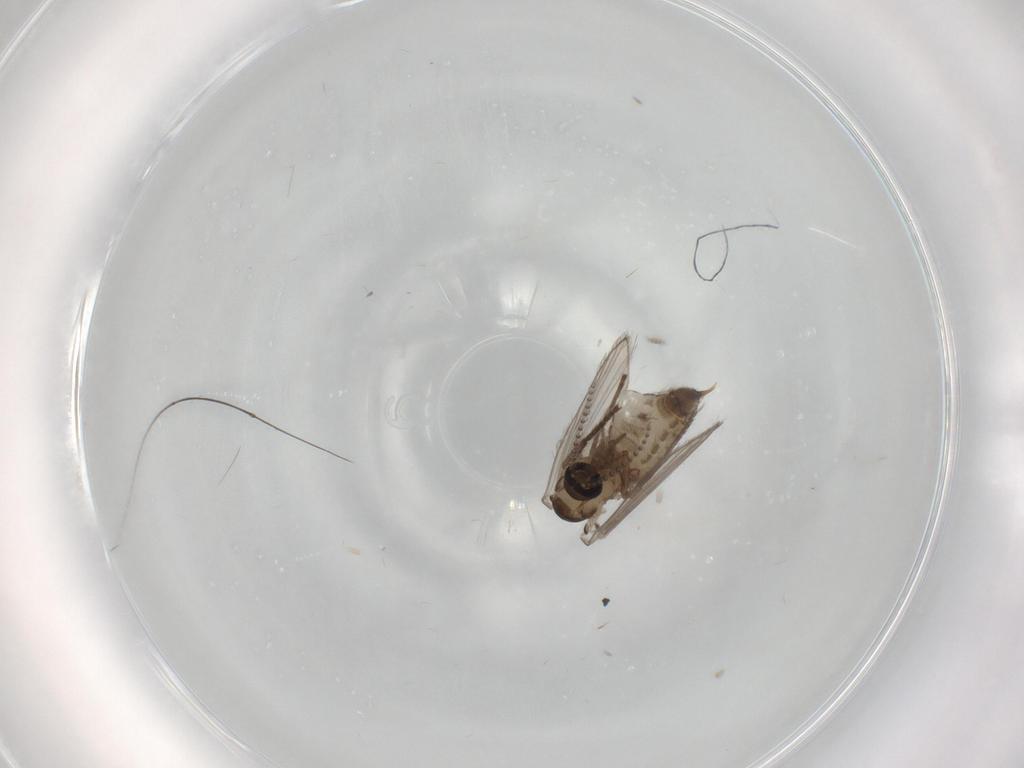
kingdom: Animalia
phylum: Arthropoda
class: Insecta
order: Diptera
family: Psychodidae
